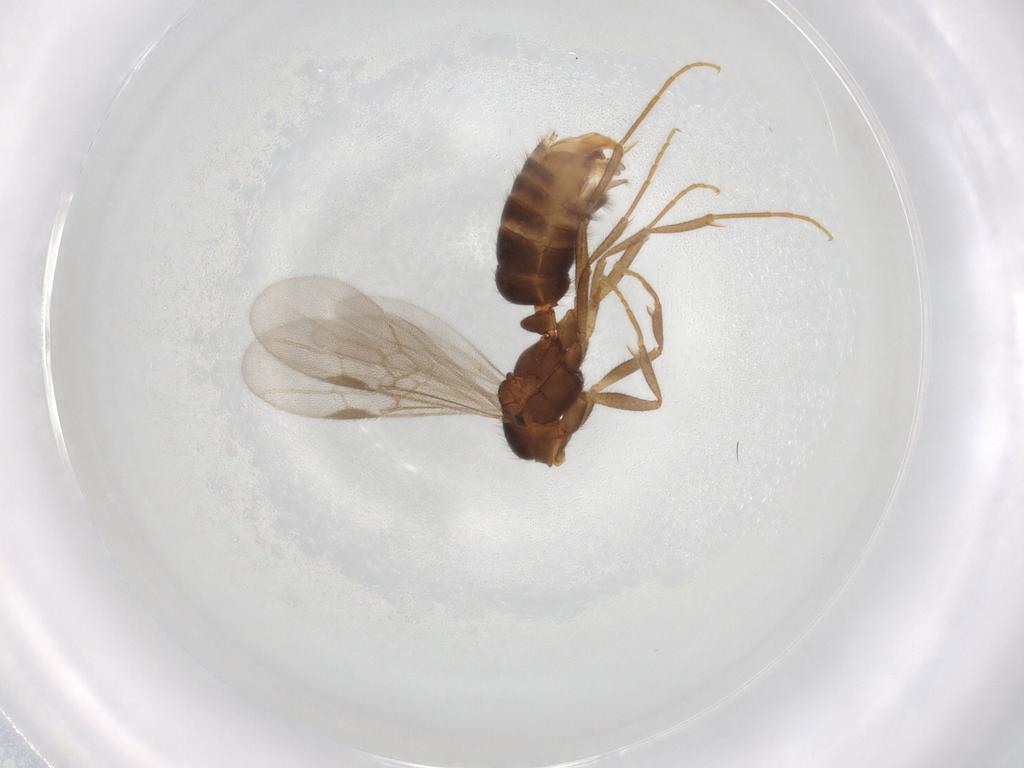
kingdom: Animalia
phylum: Arthropoda
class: Insecta
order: Hymenoptera
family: Formicidae
